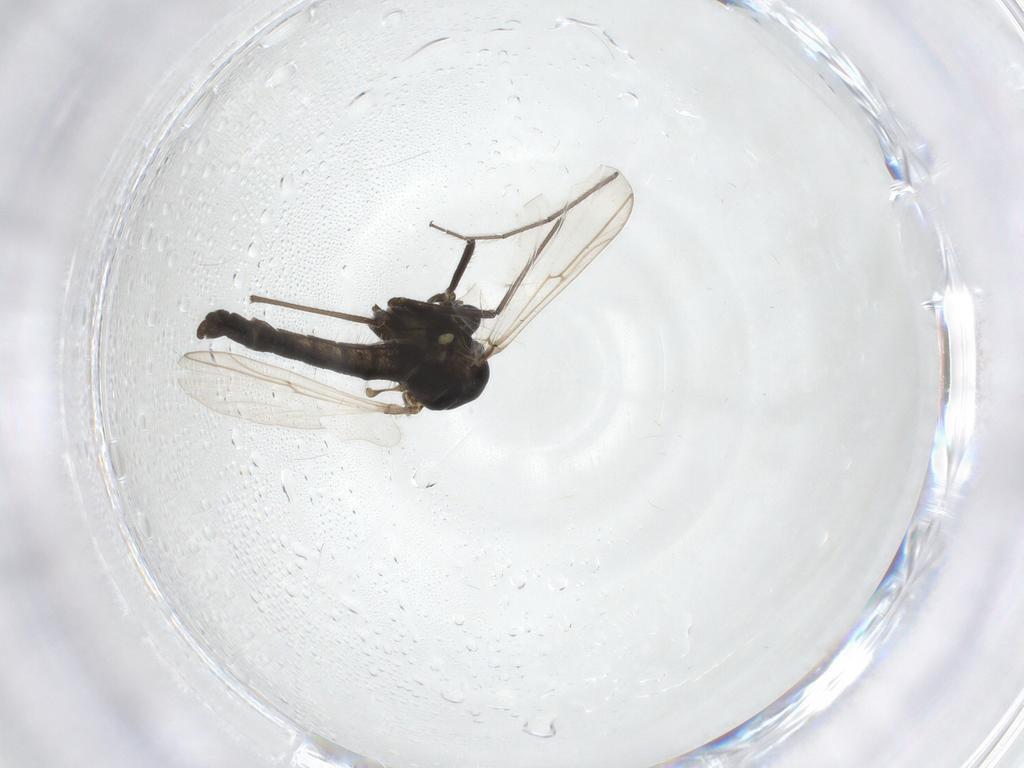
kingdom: Animalia
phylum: Arthropoda
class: Insecta
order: Diptera
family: Chironomidae
